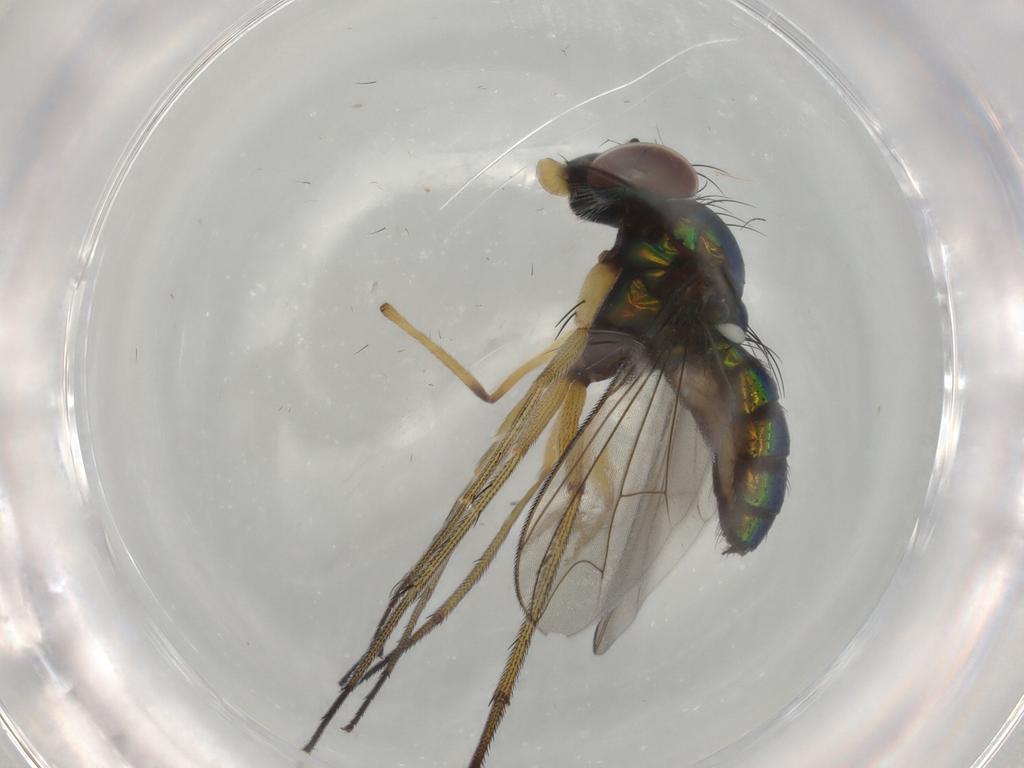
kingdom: Animalia
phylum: Arthropoda
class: Insecta
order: Diptera
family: Dolichopodidae
